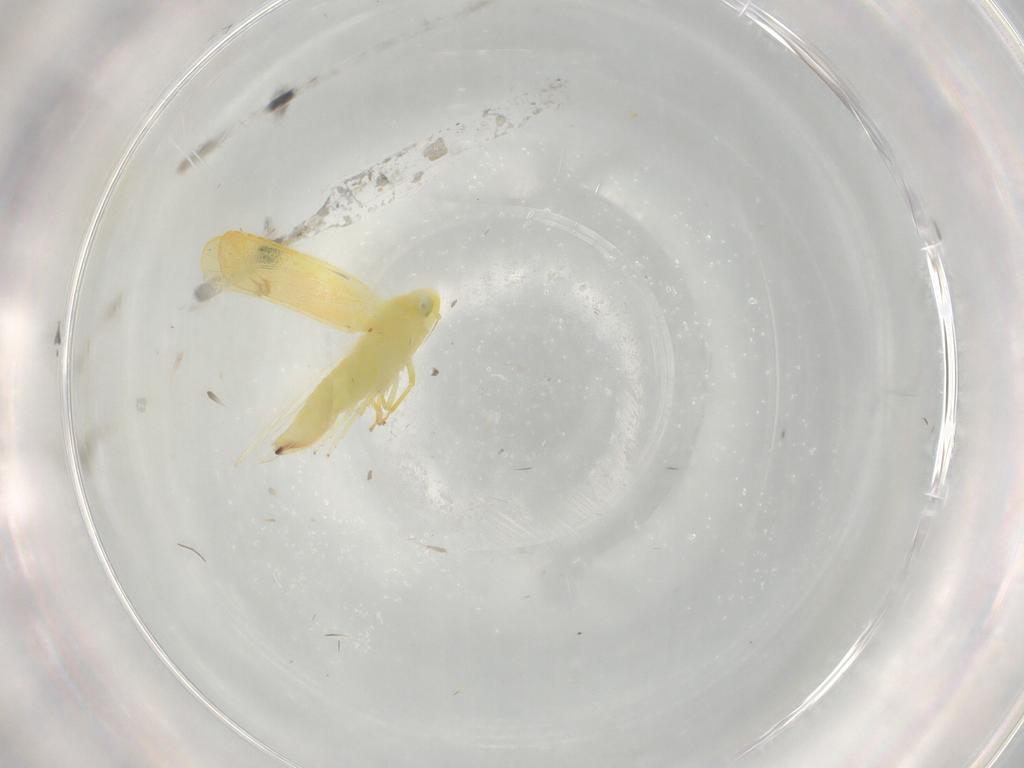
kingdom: Animalia
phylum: Arthropoda
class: Insecta
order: Hemiptera
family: Cicadellidae
